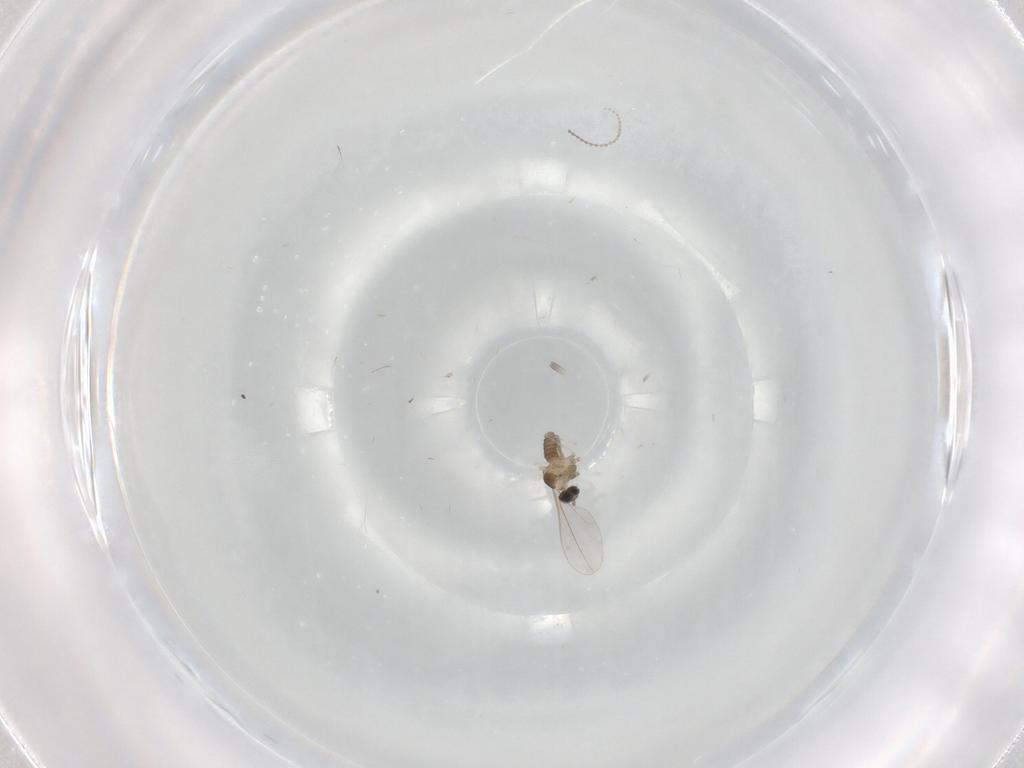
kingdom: Animalia
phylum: Arthropoda
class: Insecta
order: Diptera
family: Cecidomyiidae
